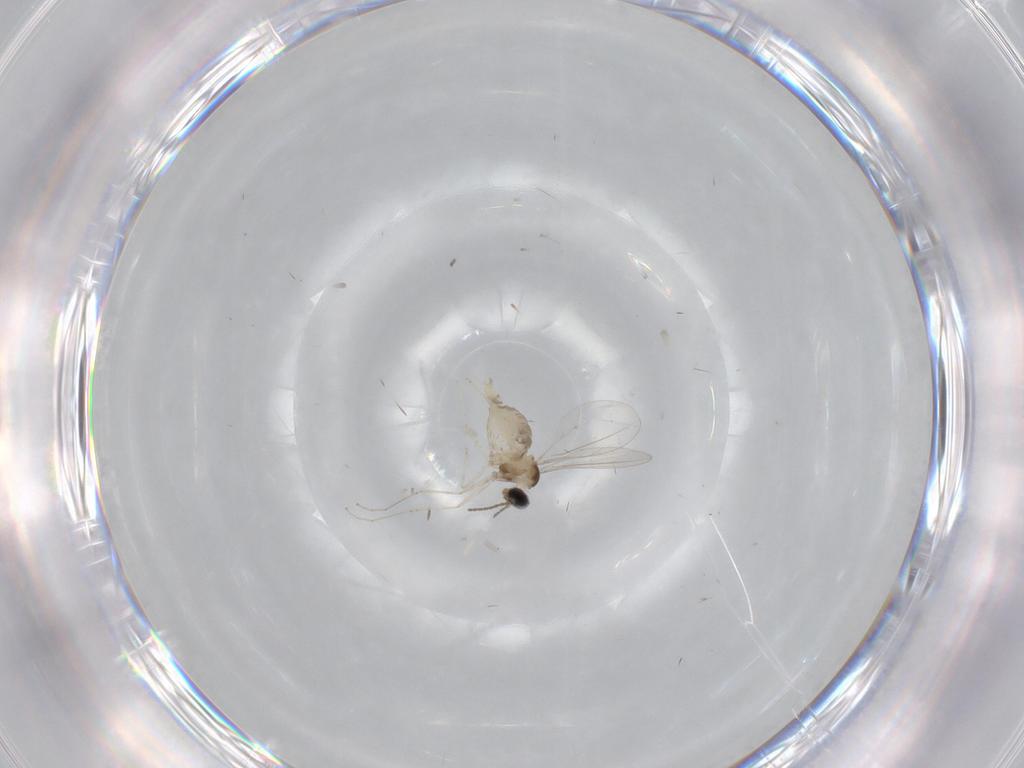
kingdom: Animalia
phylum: Arthropoda
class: Insecta
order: Diptera
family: Cecidomyiidae
